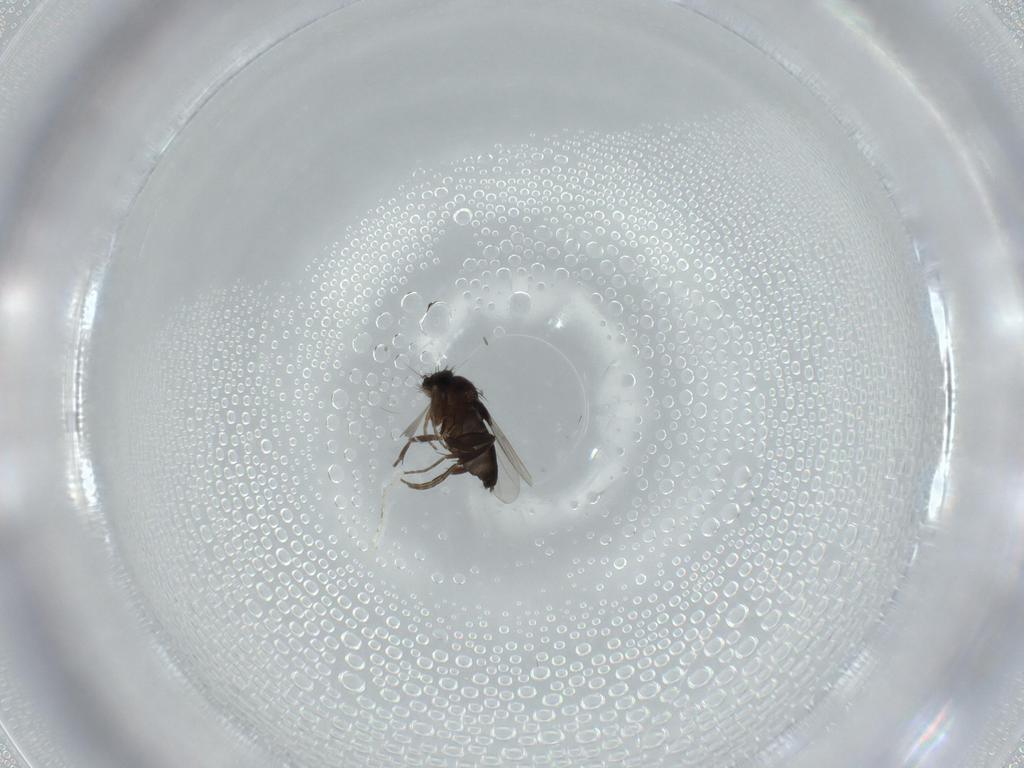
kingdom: Animalia
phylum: Arthropoda
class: Insecta
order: Diptera
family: Phoridae
